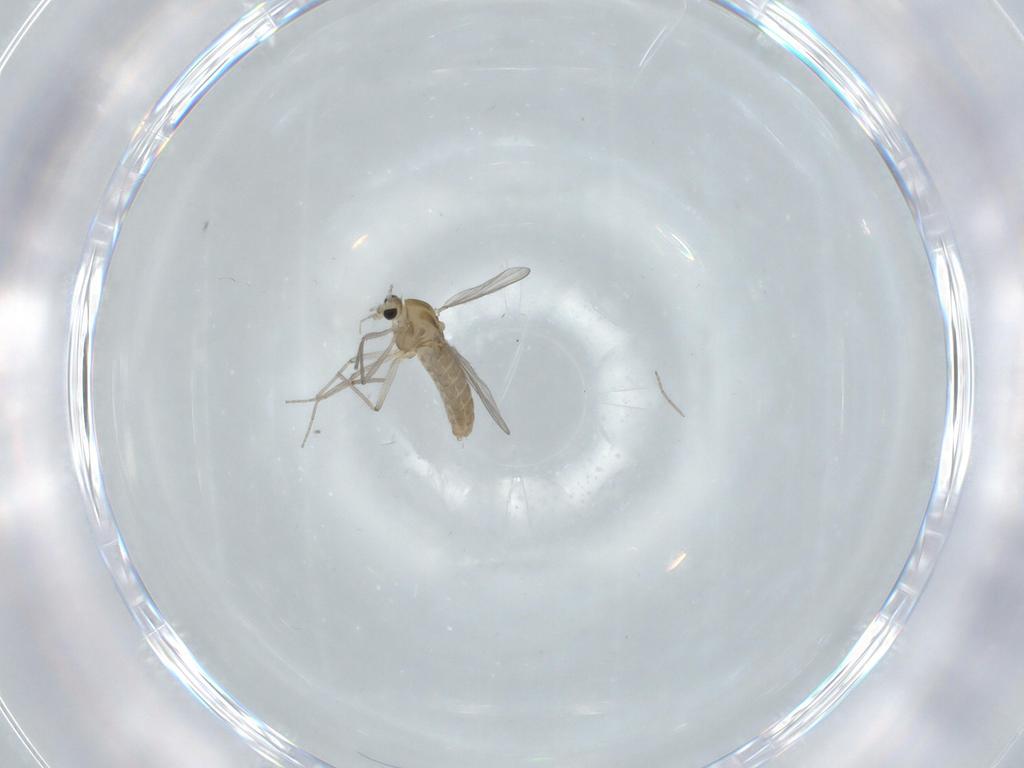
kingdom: Animalia
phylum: Arthropoda
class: Insecta
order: Diptera
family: Chironomidae
